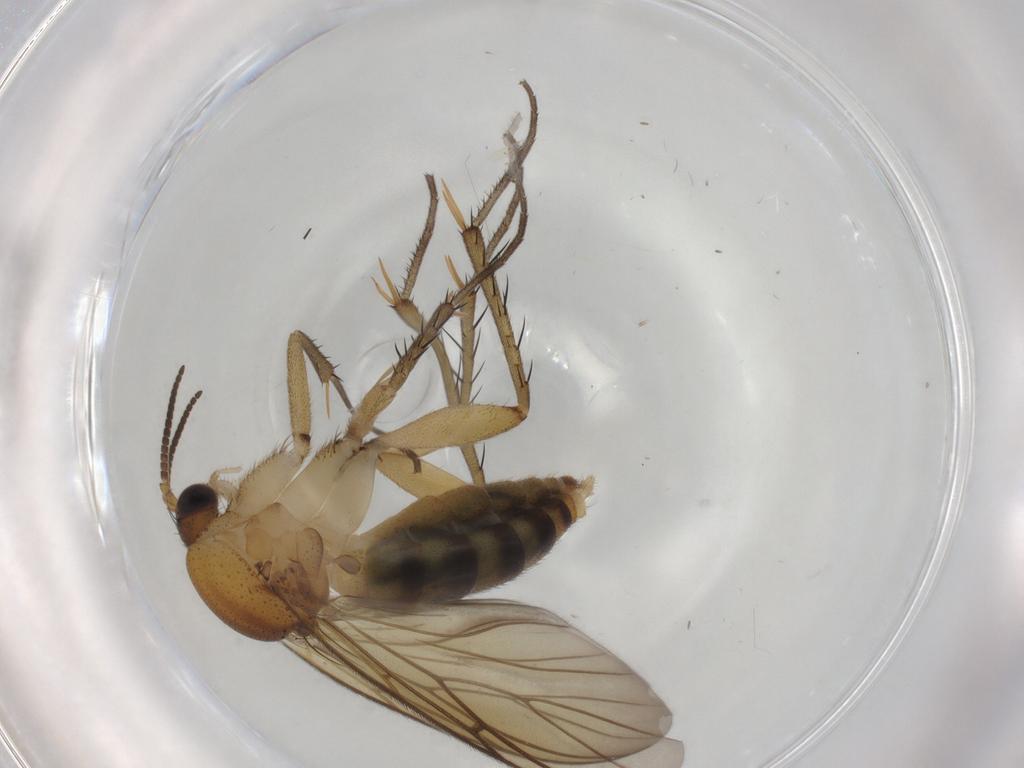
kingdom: Animalia
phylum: Arthropoda
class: Insecta
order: Diptera
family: Mycetophilidae
